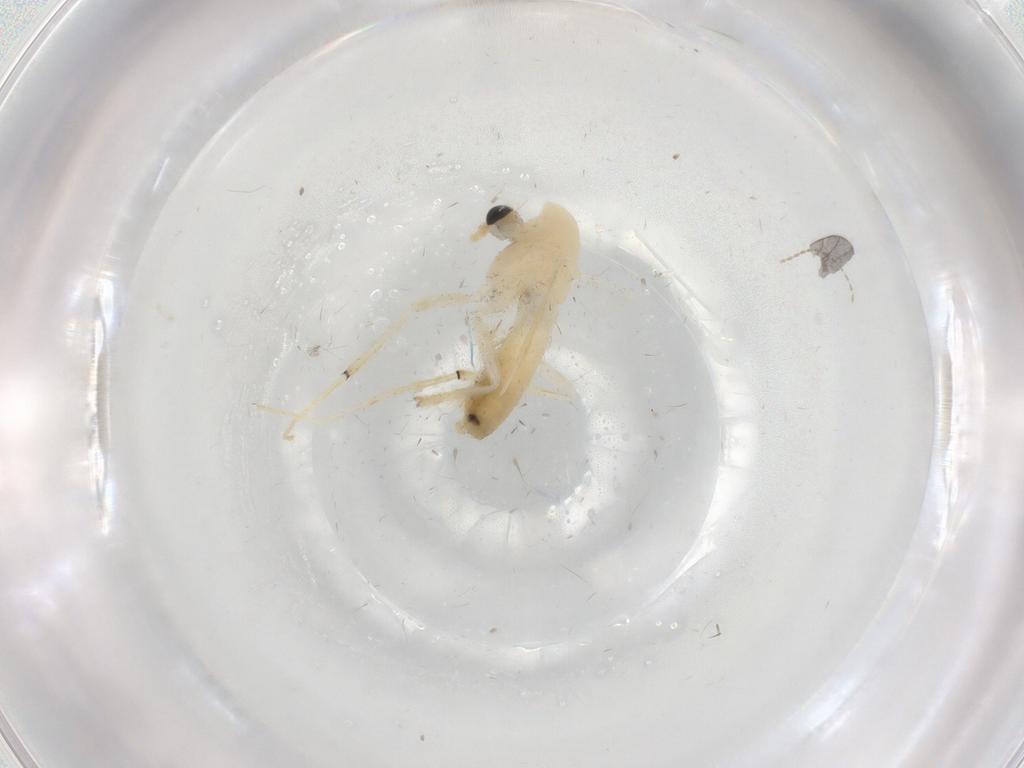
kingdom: Animalia
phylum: Arthropoda
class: Insecta
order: Diptera
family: Chironomidae
